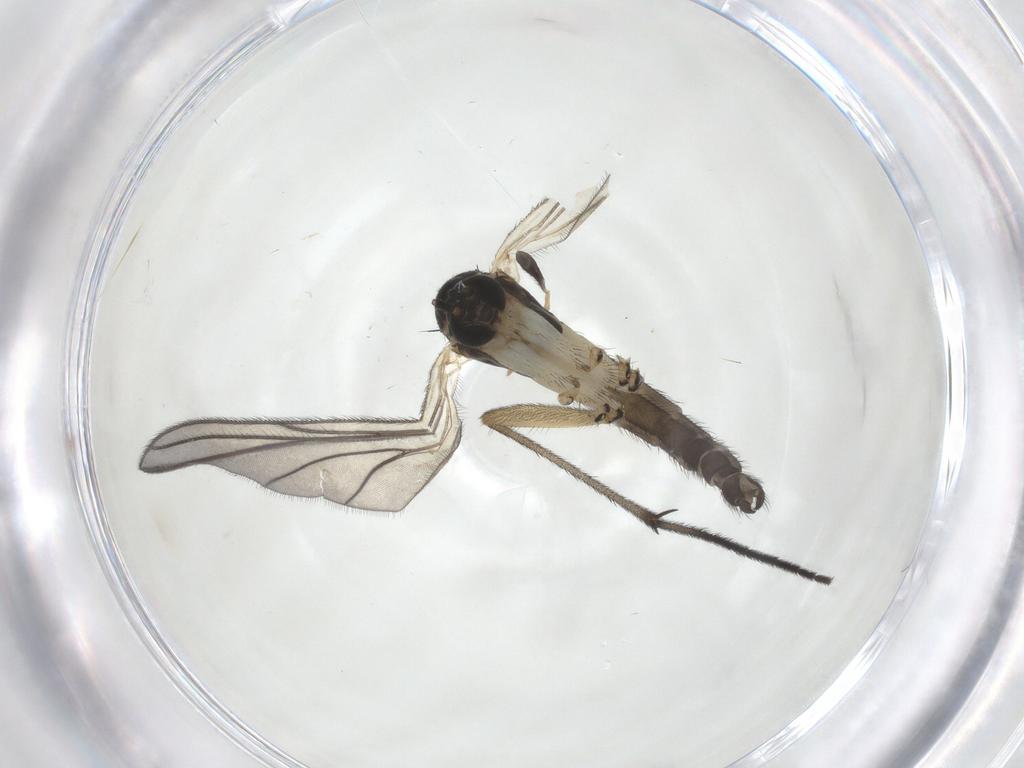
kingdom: Animalia
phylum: Arthropoda
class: Insecta
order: Diptera
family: Sciaridae
